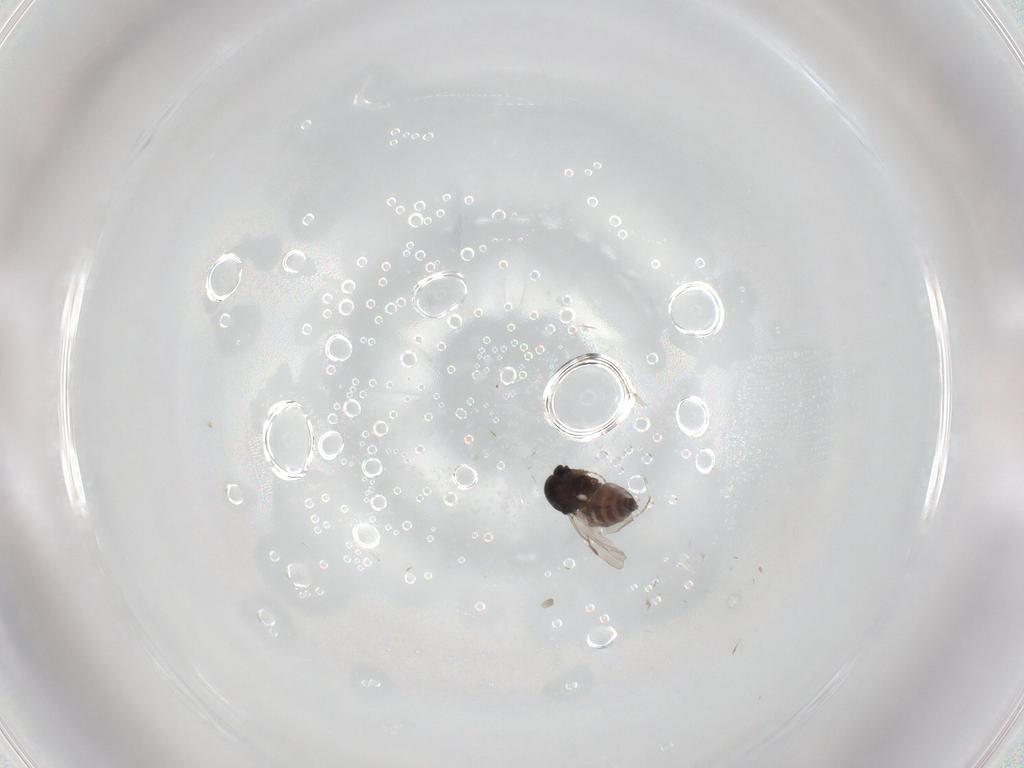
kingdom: Animalia
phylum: Arthropoda
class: Insecta
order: Diptera
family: Ceratopogonidae
